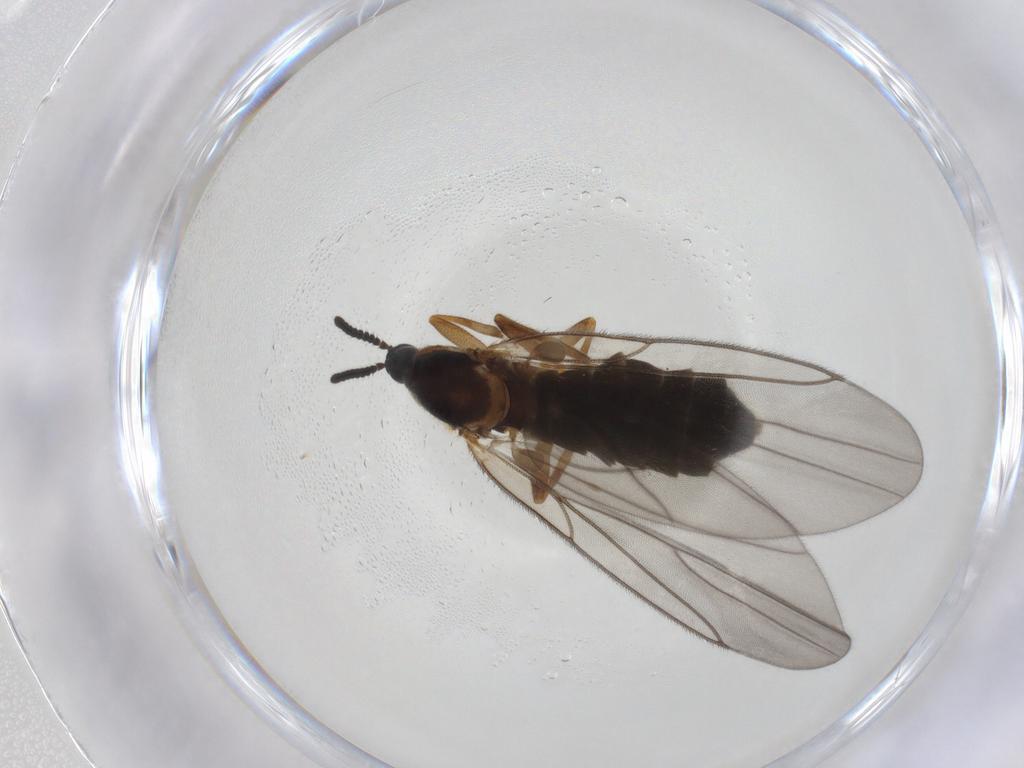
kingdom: Animalia
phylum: Arthropoda
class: Insecta
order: Diptera
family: Scatopsidae
